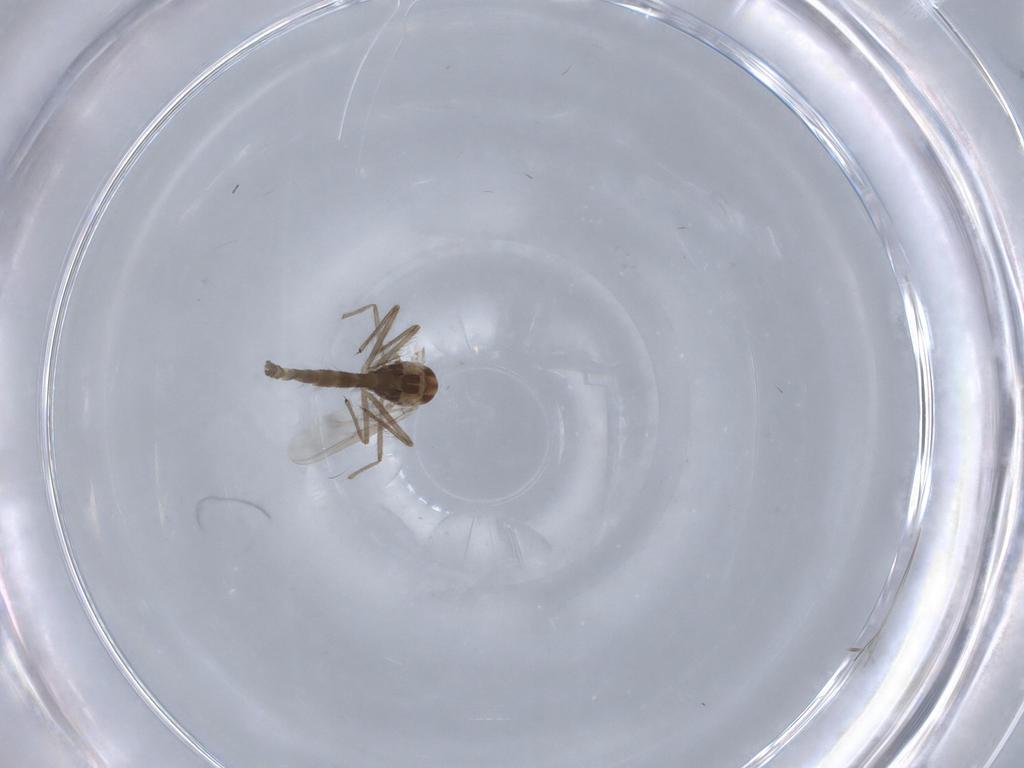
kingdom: Animalia
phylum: Arthropoda
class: Insecta
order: Diptera
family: Chironomidae
